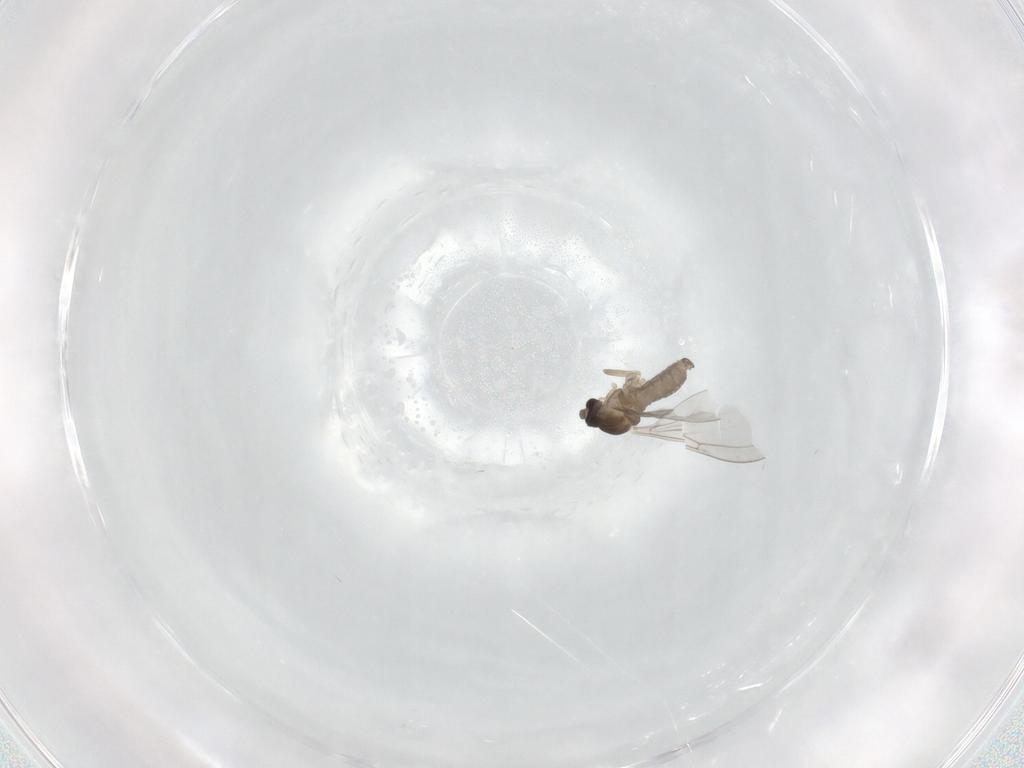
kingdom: Animalia
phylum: Arthropoda
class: Insecta
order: Diptera
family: Cecidomyiidae
